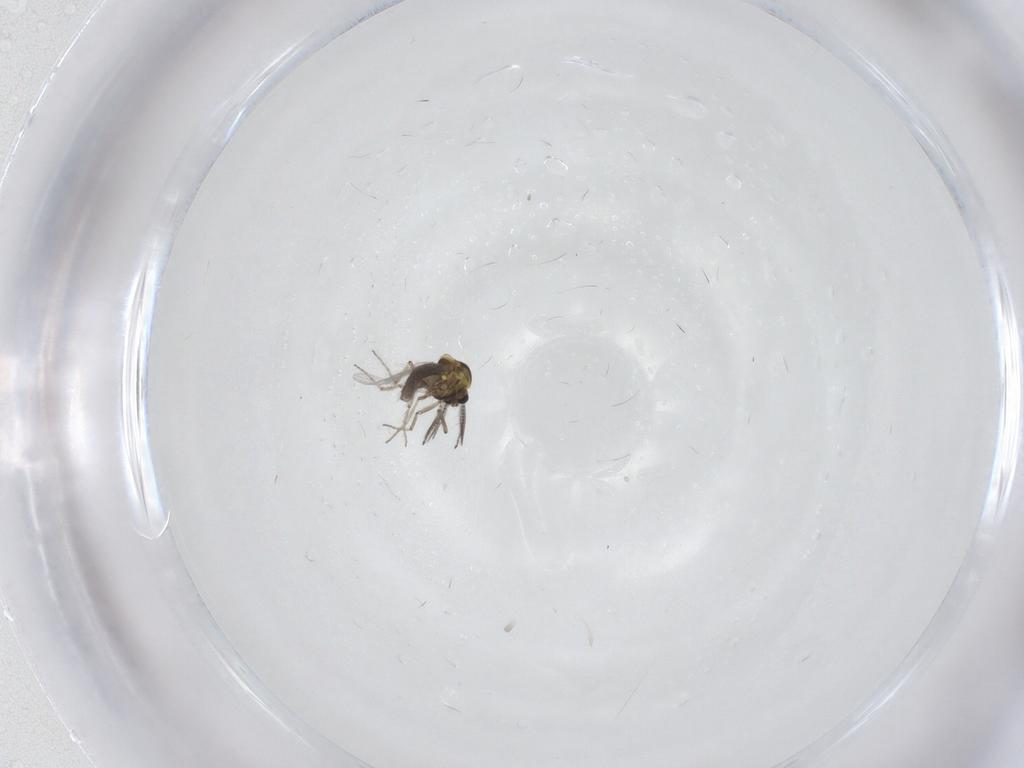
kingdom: Animalia
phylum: Arthropoda
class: Insecta
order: Diptera
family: Ceratopogonidae
